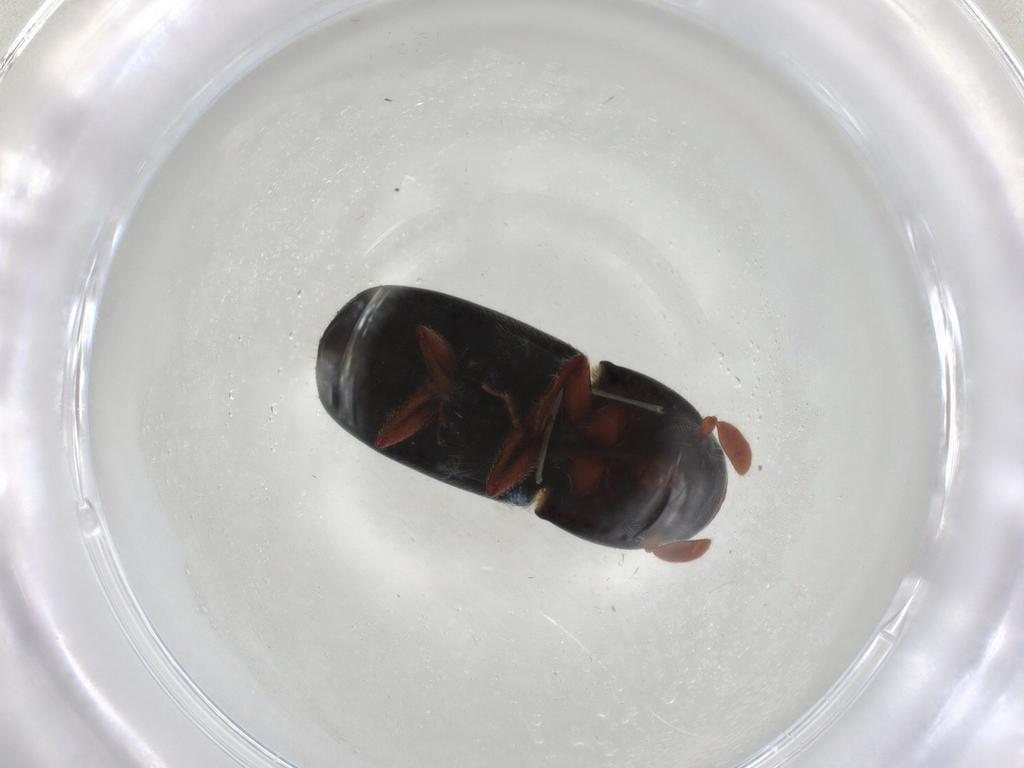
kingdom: Animalia
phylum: Arthropoda
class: Insecta
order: Coleoptera
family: Curculionidae
